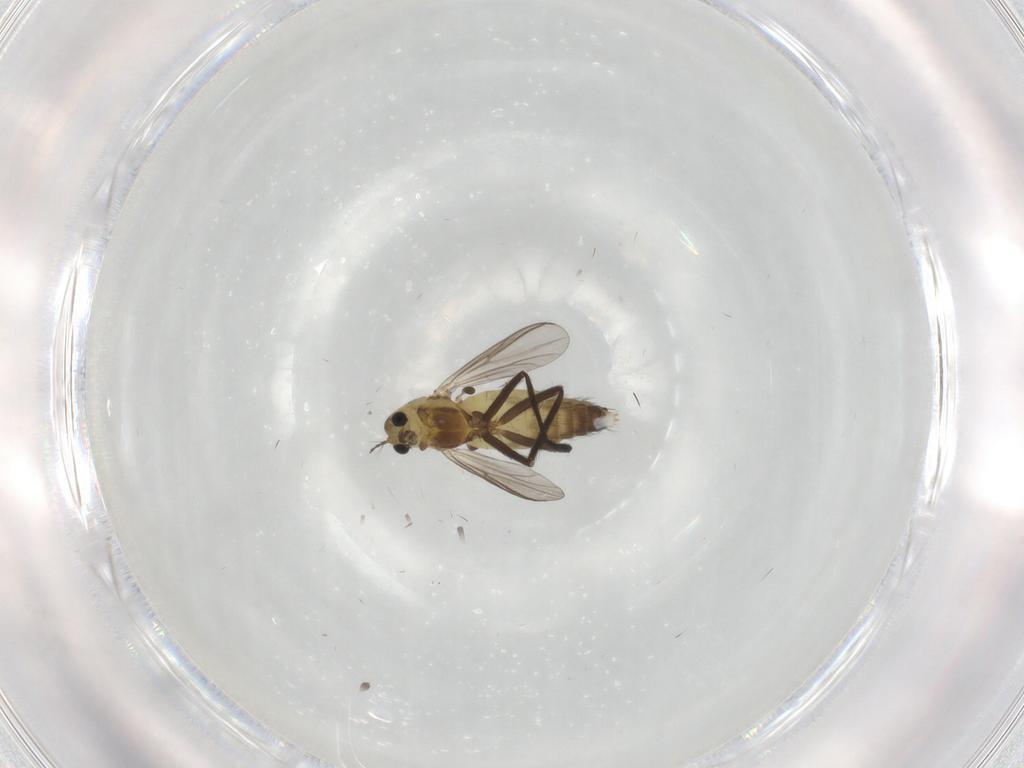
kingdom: Animalia
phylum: Arthropoda
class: Insecta
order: Diptera
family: Chironomidae
